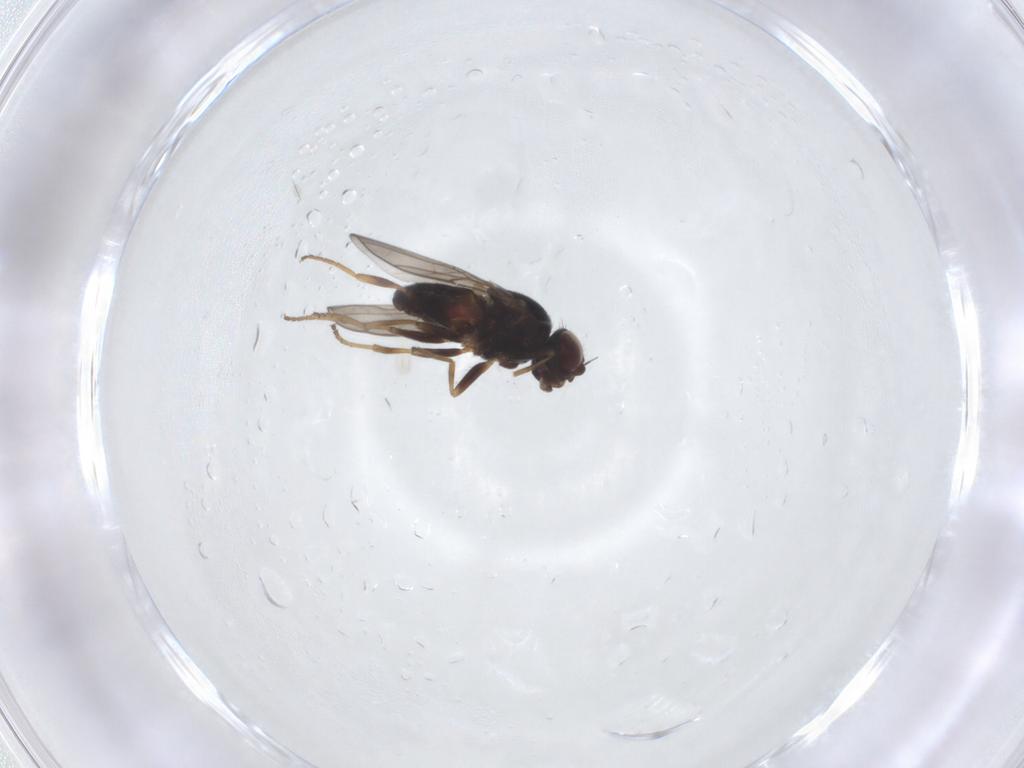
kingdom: Animalia
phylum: Arthropoda
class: Insecta
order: Diptera
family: Chloropidae
